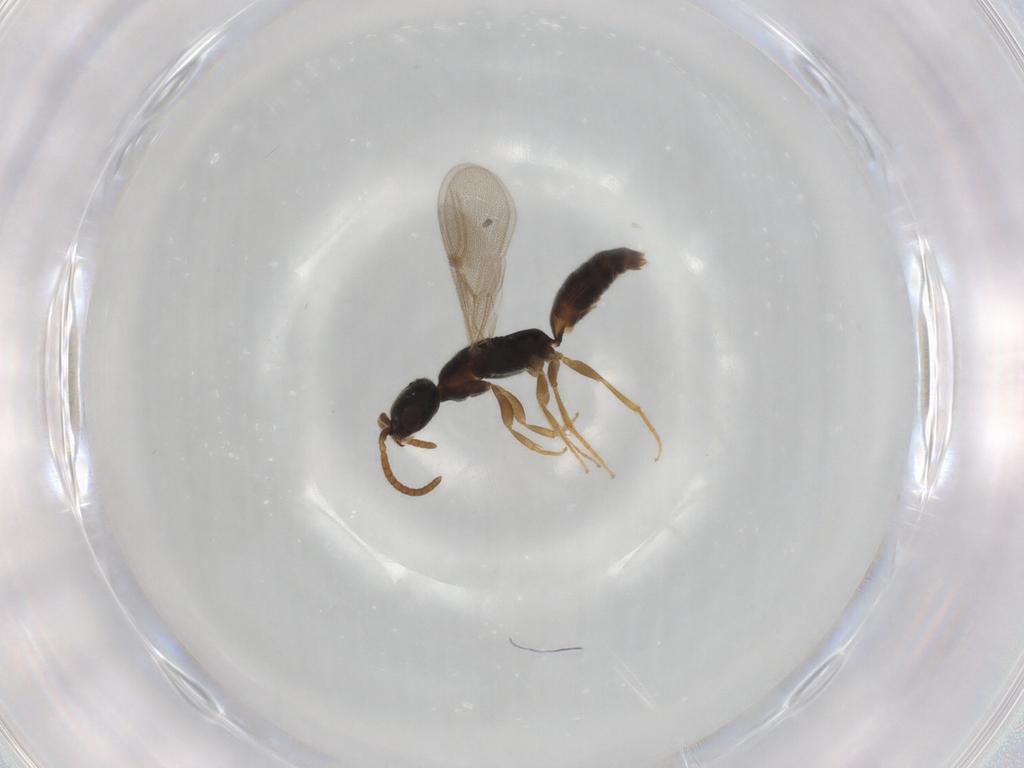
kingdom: Animalia
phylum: Arthropoda
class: Insecta
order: Hymenoptera
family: Bethylidae
